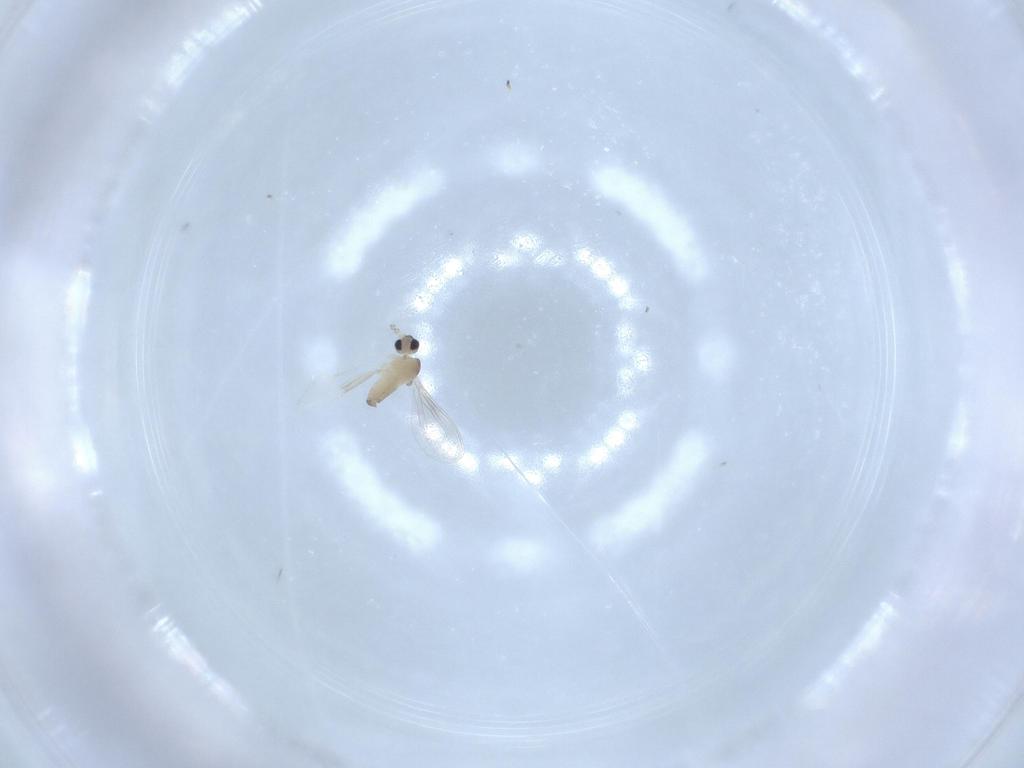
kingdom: Animalia
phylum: Arthropoda
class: Insecta
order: Diptera
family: Cecidomyiidae
